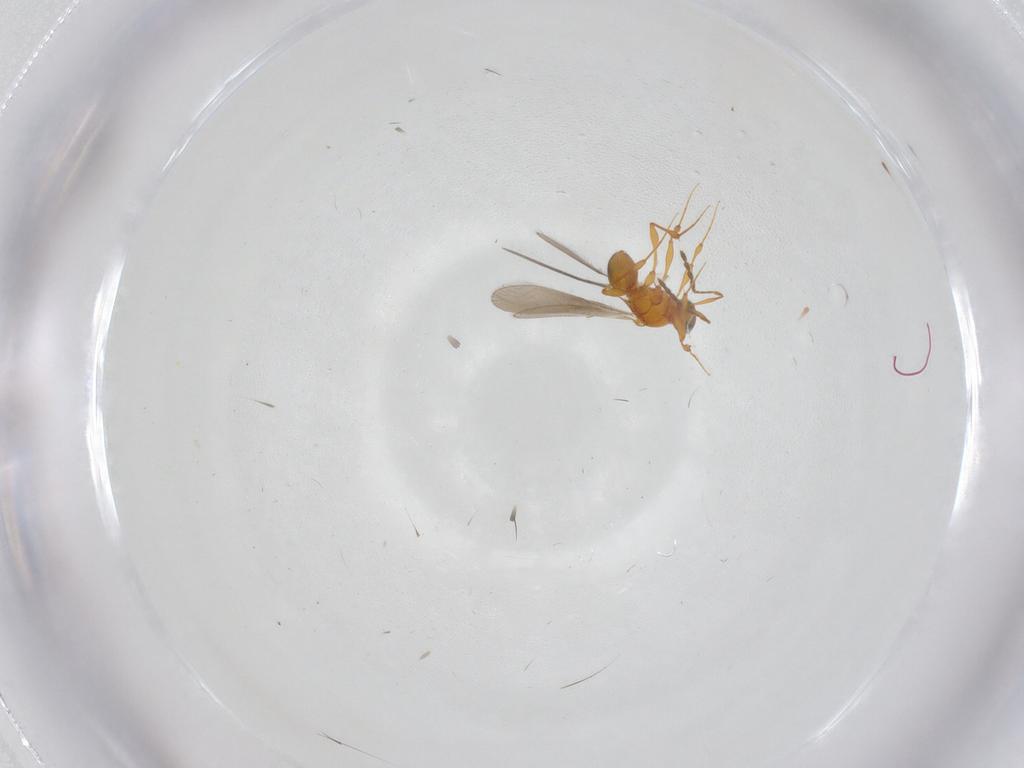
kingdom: Animalia
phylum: Arthropoda
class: Insecta
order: Hymenoptera
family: Platygastridae
